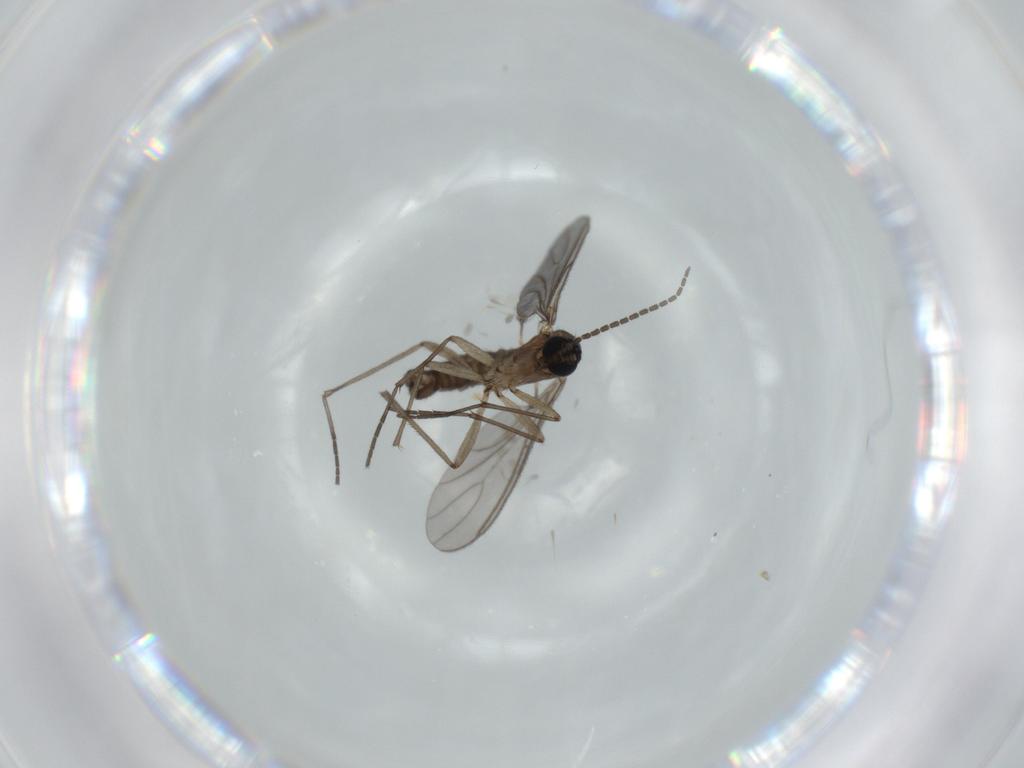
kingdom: Animalia
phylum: Arthropoda
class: Insecta
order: Diptera
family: Sciaridae
